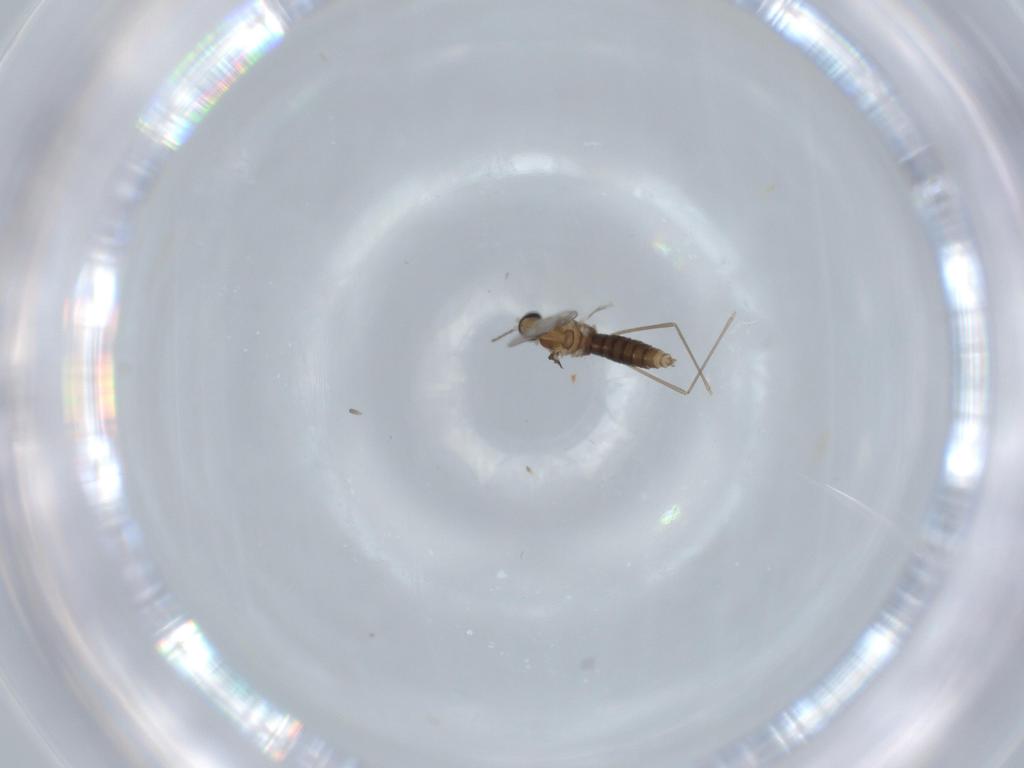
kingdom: Animalia
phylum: Arthropoda
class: Insecta
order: Diptera
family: Cecidomyiidae
